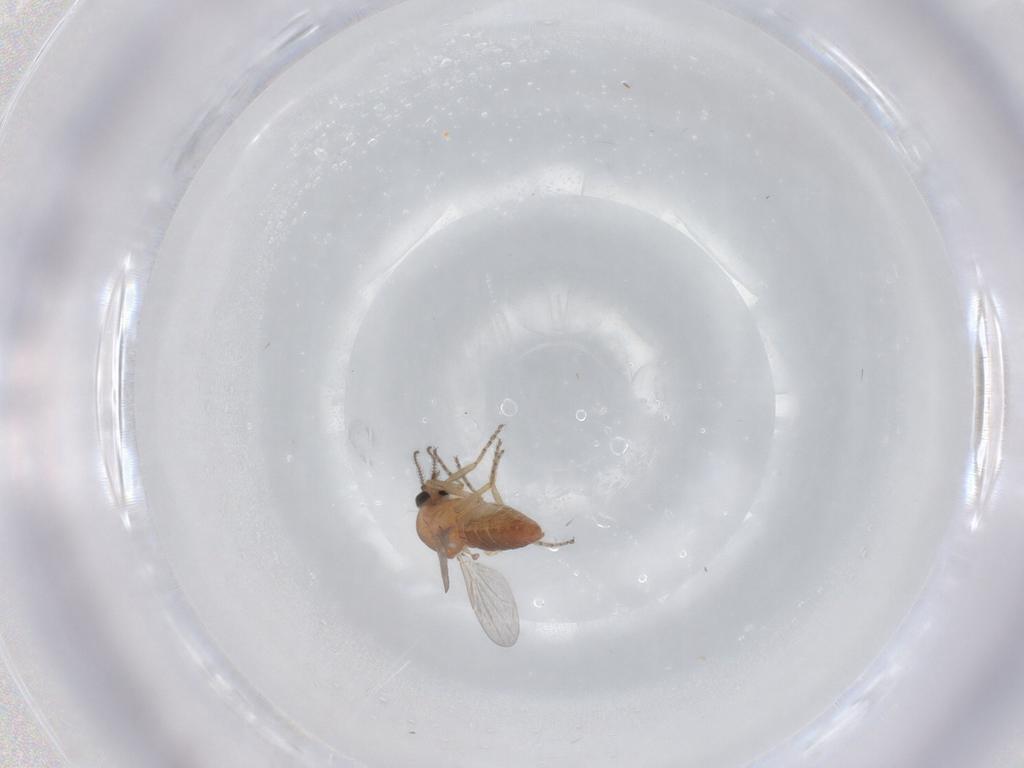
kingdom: Animalia
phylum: Arthropoda
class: Insecta
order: Diptera
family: Ceratopogonidae
